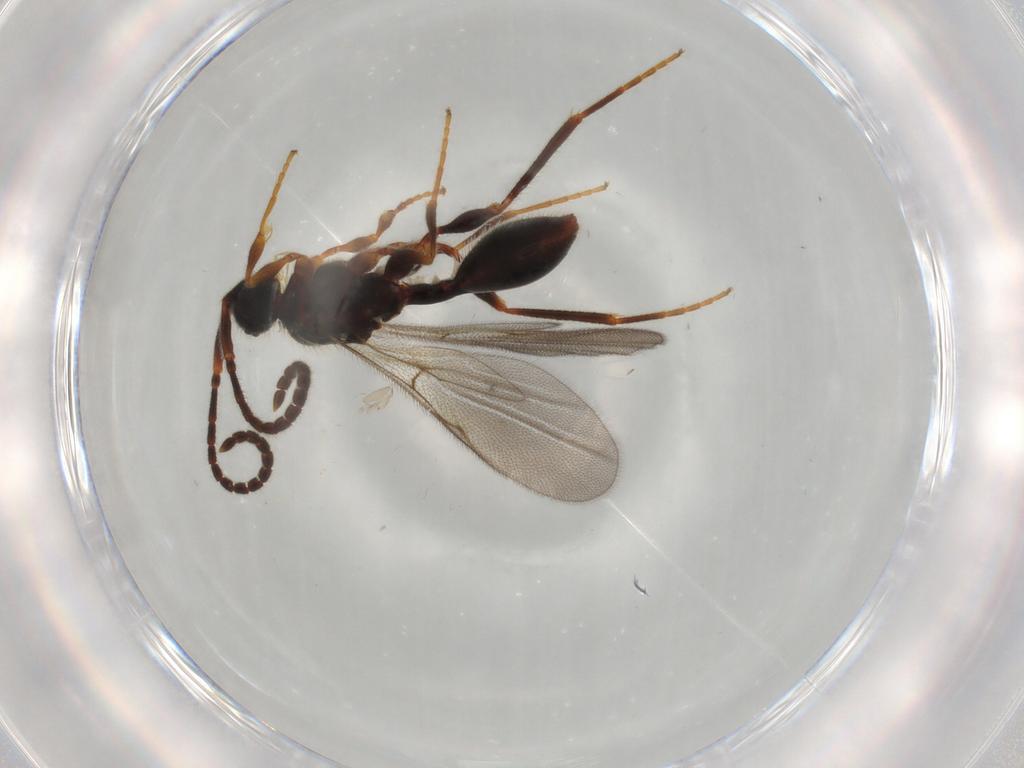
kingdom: Animalia
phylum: Arthropoda
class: Insecta
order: Hymenoptera
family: Diapriidae
